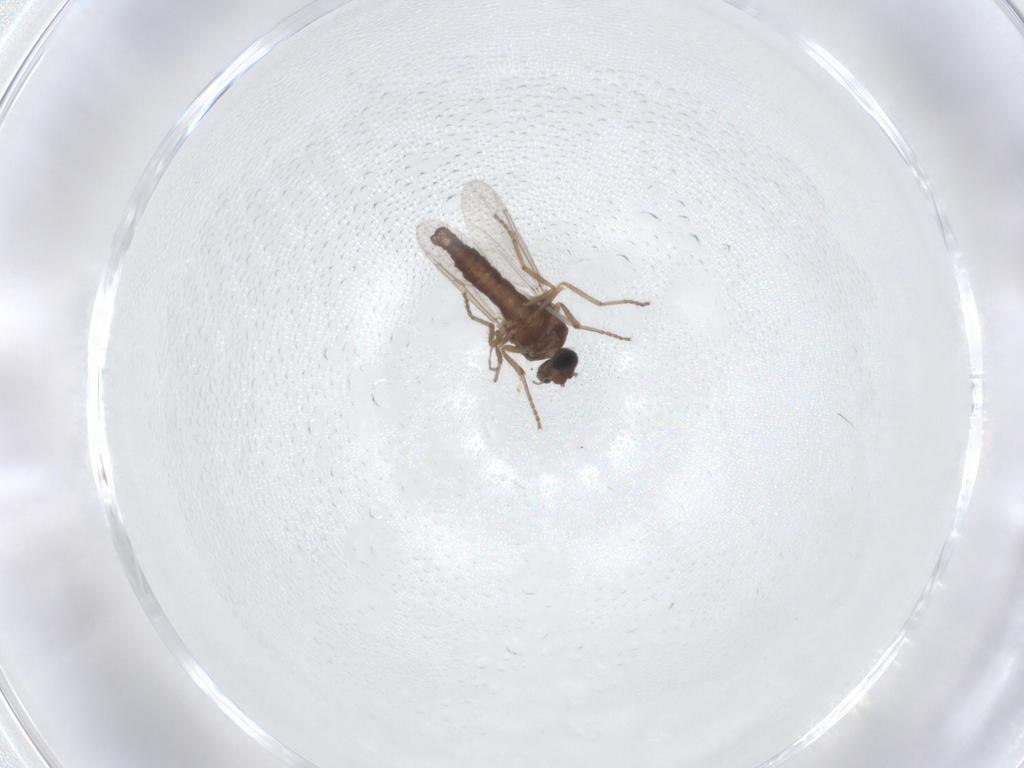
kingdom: Animalia
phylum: Arthropoda
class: Insecta
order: Diptera
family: Ceratopogonidae
